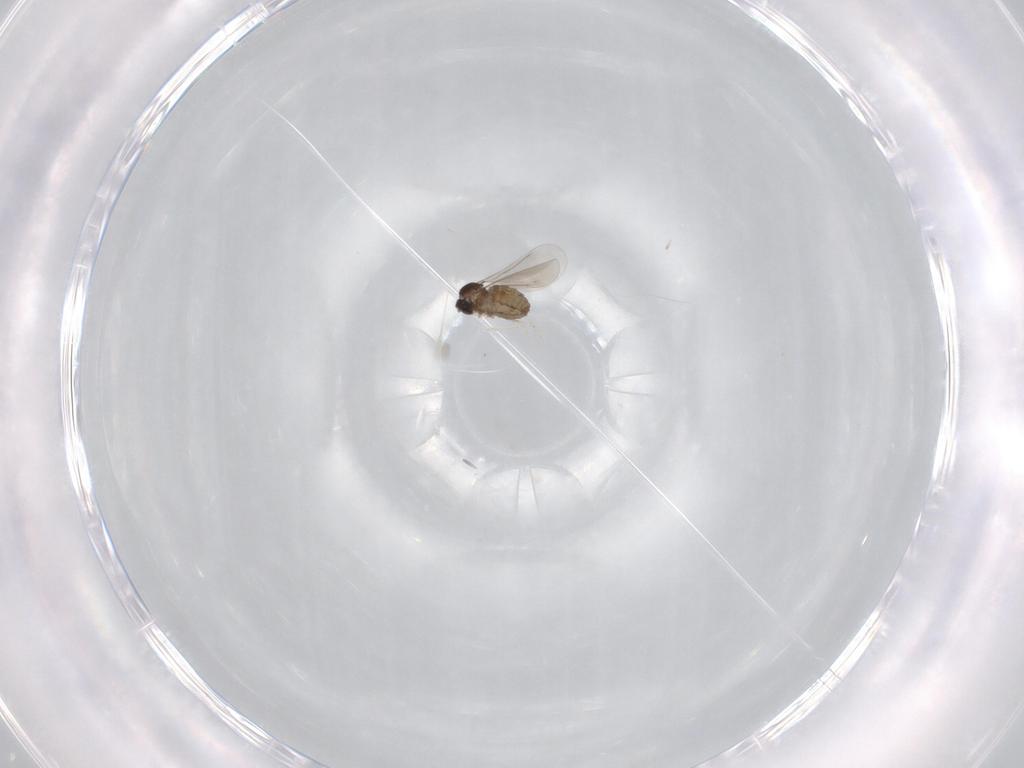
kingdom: Animalia
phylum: Arthropoda
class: Insecta
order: Diptera
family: Cecidomyiidae
